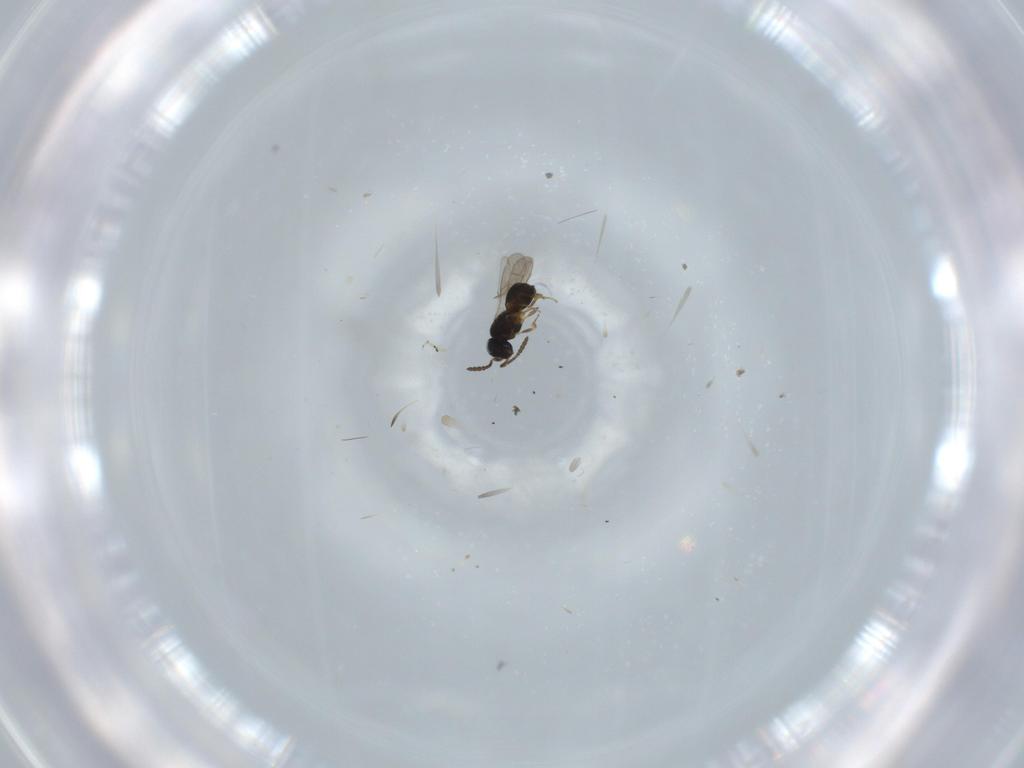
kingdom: Animalia
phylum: Arthropoda
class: Insecta
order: Hymenoptera
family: Scelionidae
